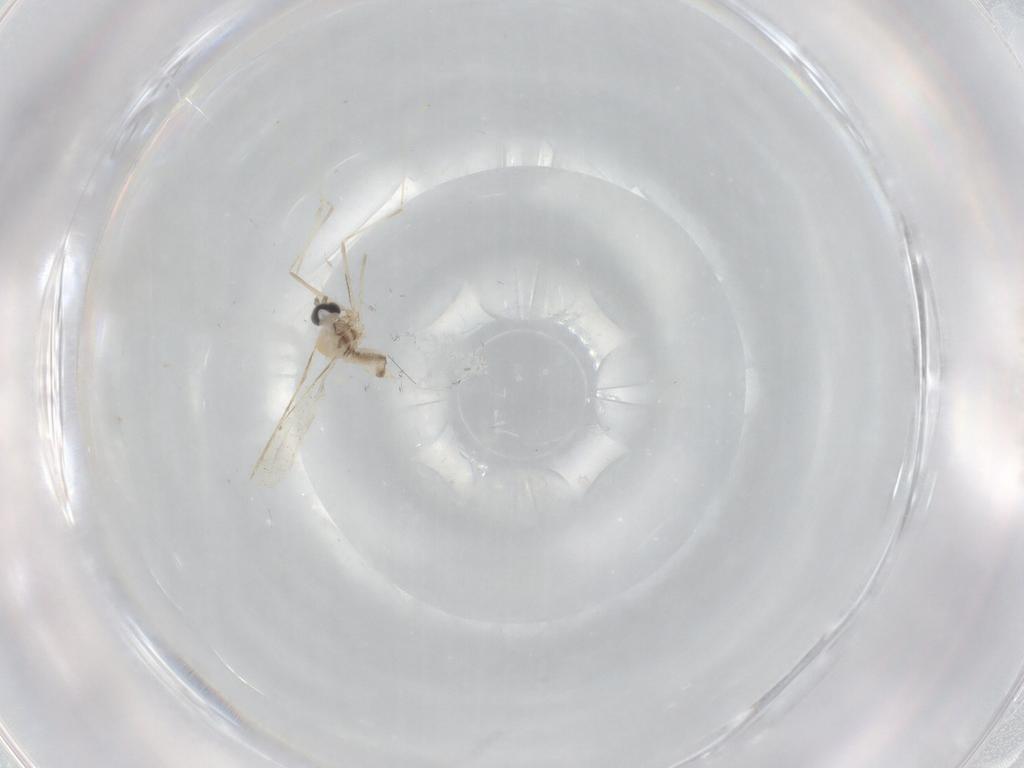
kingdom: Animalia
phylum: Arthropoda
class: Insecta
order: Diptera
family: Cecidomyiidae
